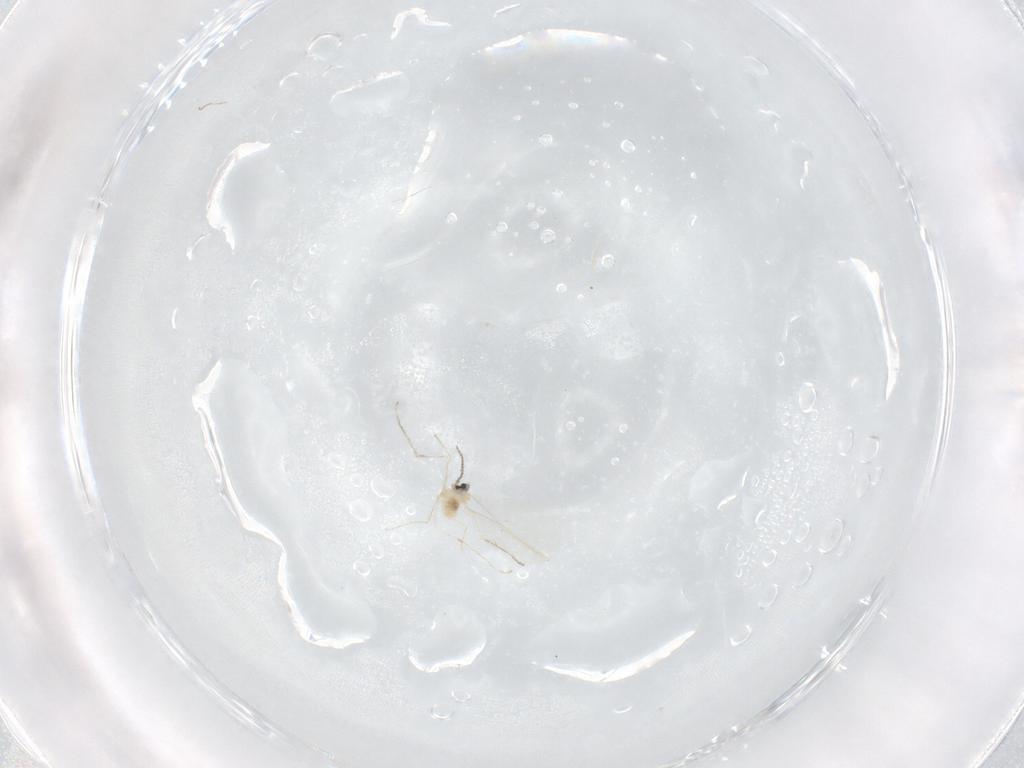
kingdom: Animalia
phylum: Arthropoda
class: Insecta
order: Diptera
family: Cecidomyiidae
